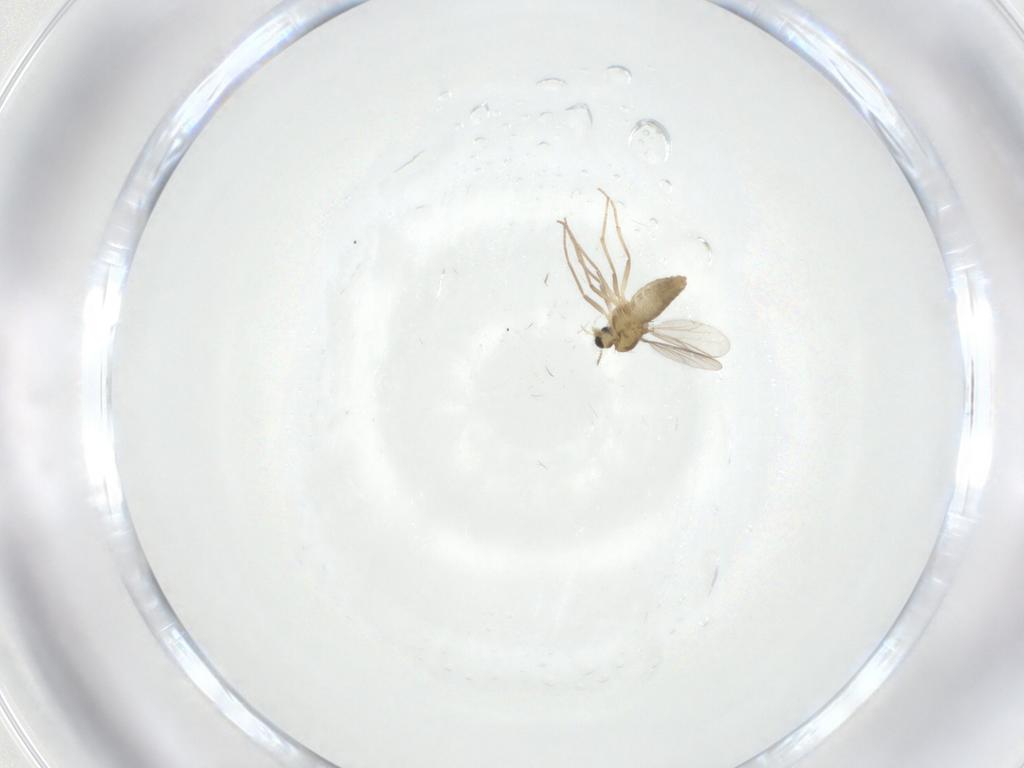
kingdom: Animalia
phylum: Arthropoda
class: Insecta
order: Diptera
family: Chironomidae
